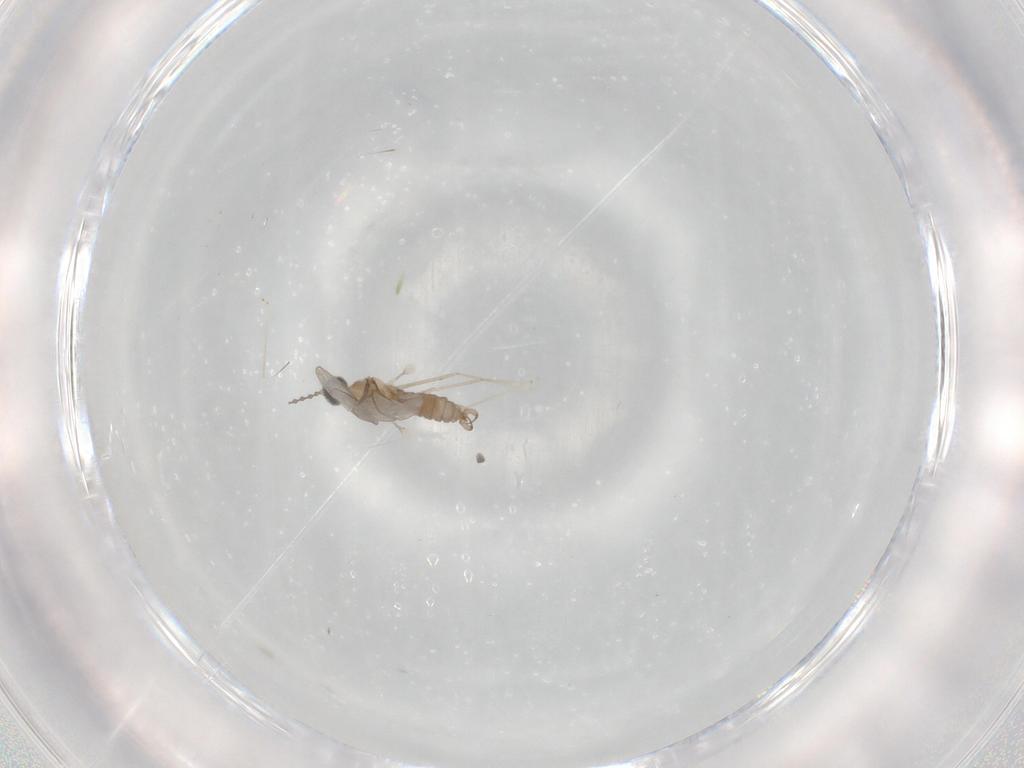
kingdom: Animalia
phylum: Arthropoda
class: Insecta
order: Diptera
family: Cecidomyiidae
